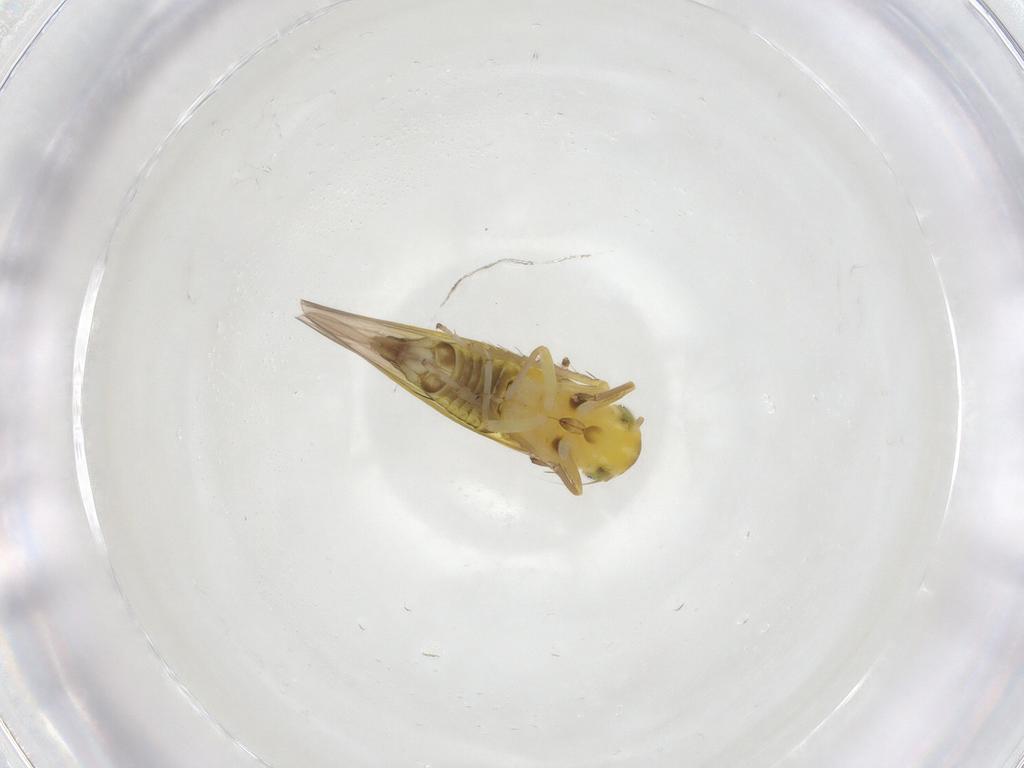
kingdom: Animalia
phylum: Arthropoda
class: Insecta
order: Hemiptera
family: Cicadellidae
